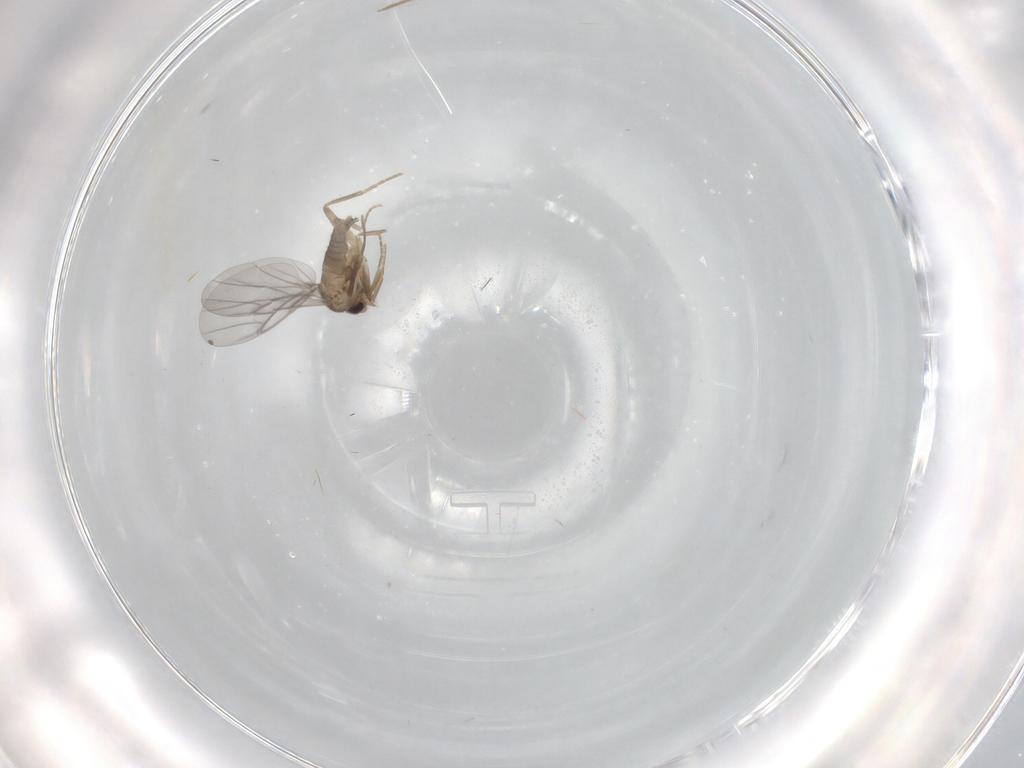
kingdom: Animalia
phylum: Arthropoda
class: Insecta
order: Diptera
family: Chironomidae
